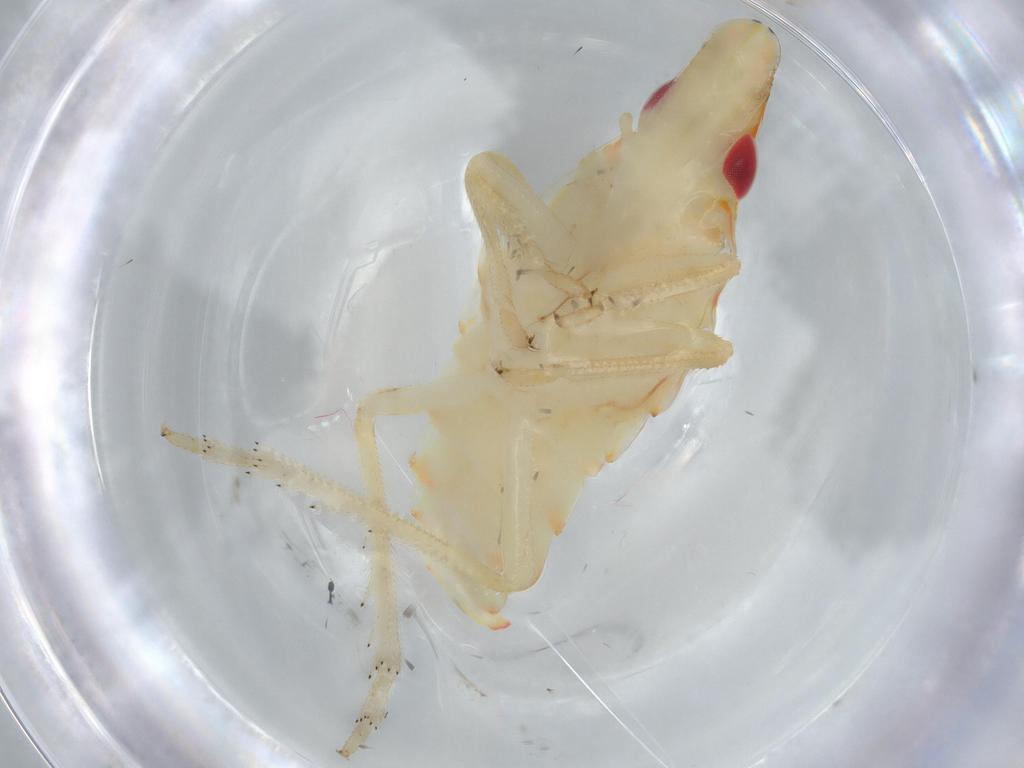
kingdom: Animalia
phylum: Arthropoda
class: Insecta
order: Hemiptera
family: Tropiduchidae
